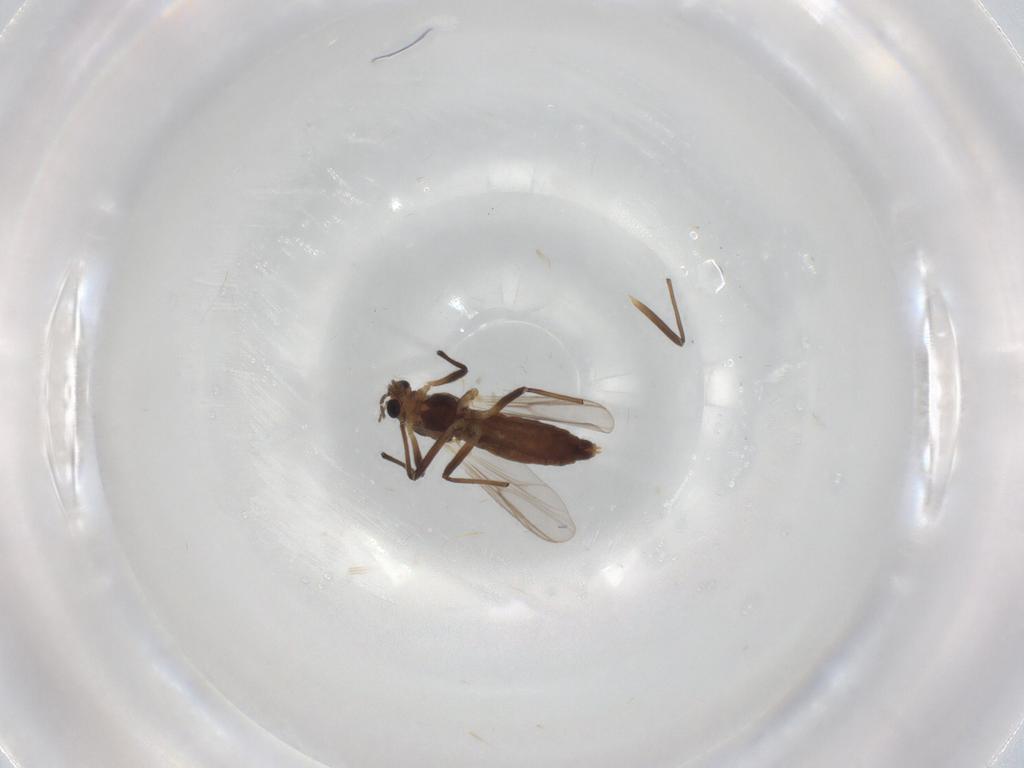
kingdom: Animalia
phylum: Arthropoda
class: Insecta
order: Diptera
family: Chironomidae
